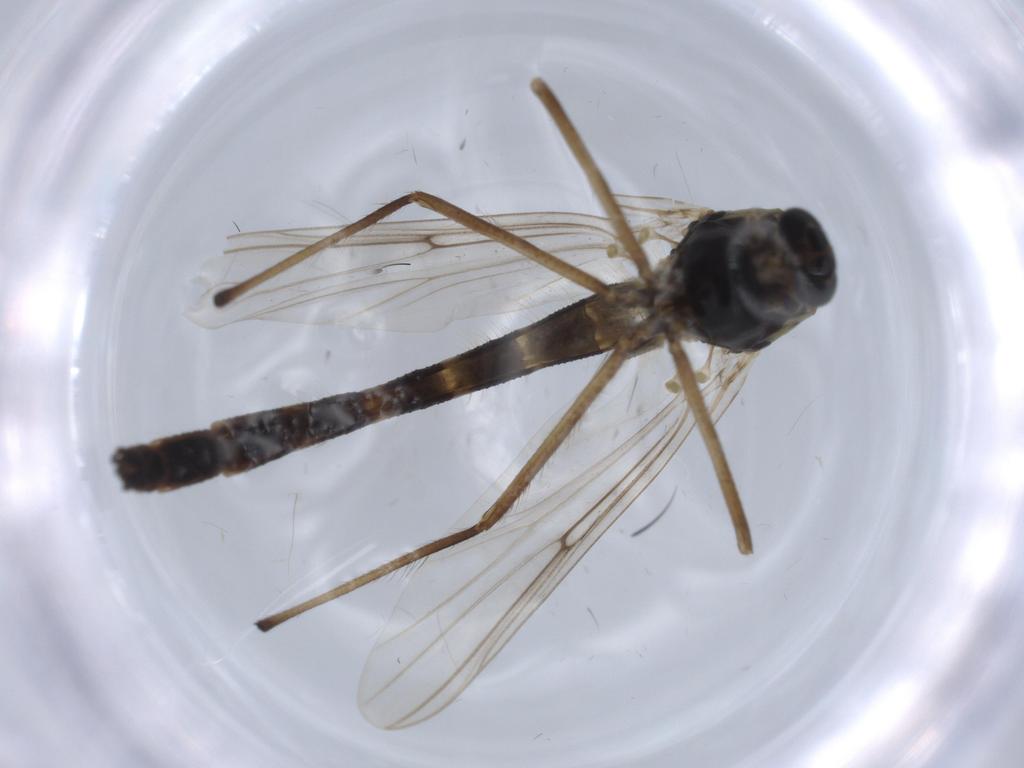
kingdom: Animalia
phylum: Arthropoda
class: Insecta
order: Diptera
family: Chironomidae
